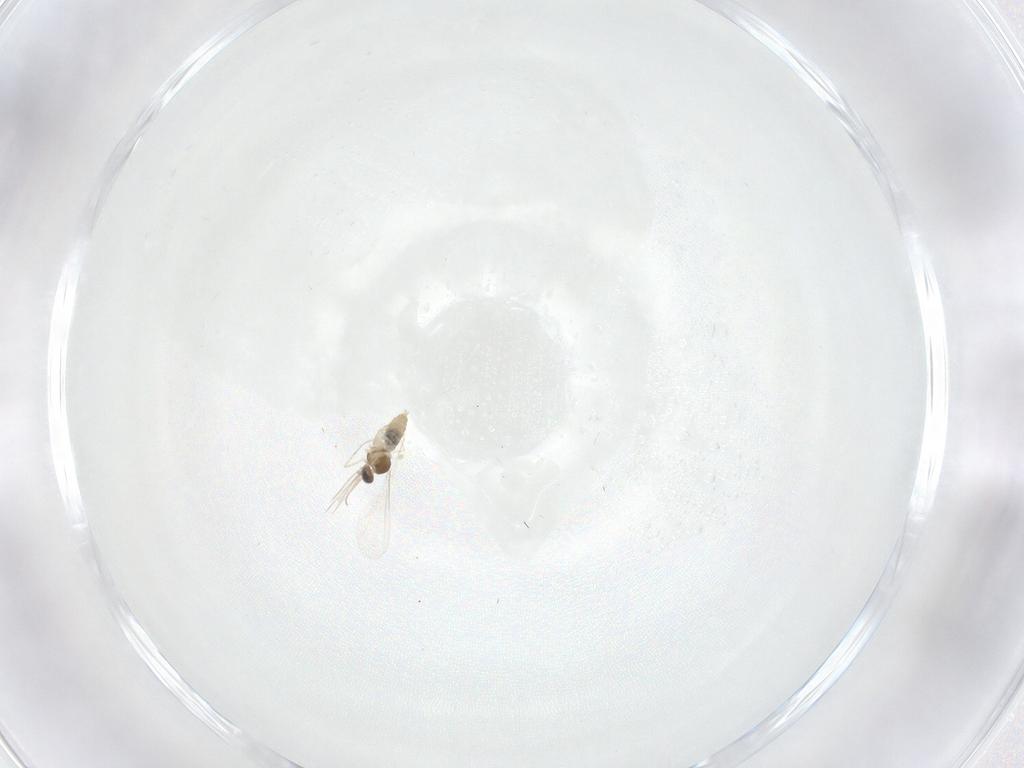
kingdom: Animalia
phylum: Arthropoda
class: Insecta
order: Diptera
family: Cecidomyiidae
